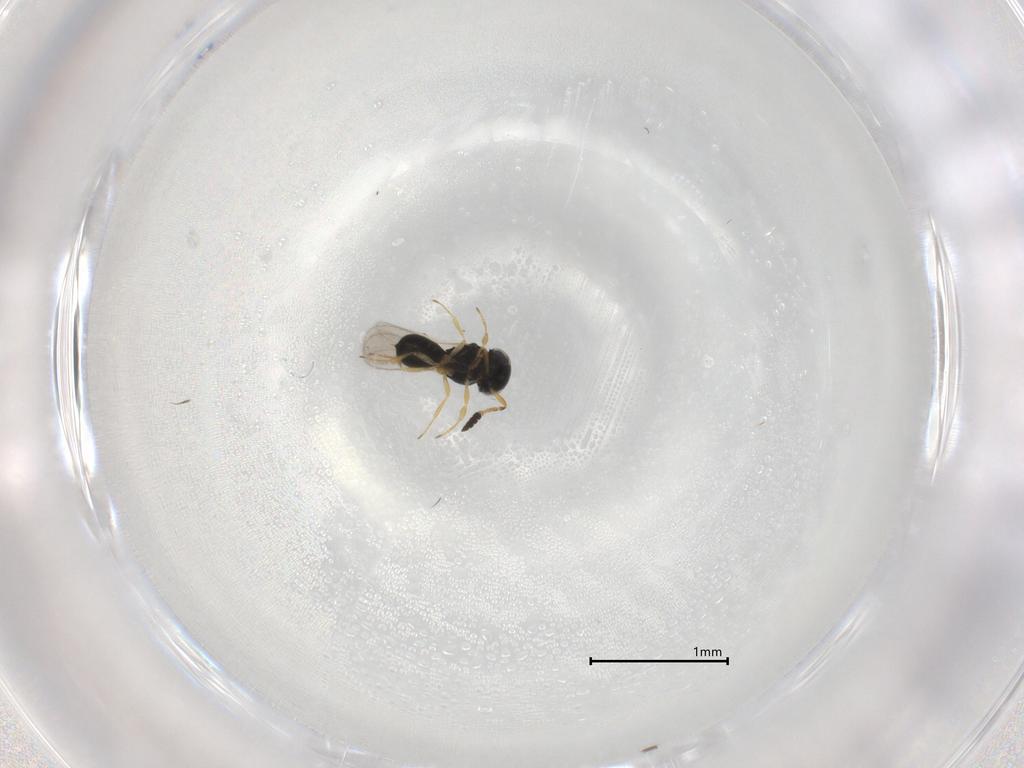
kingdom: Animalia
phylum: Arthropoda
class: Insecta
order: Hymenoptera
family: Scelionidae
